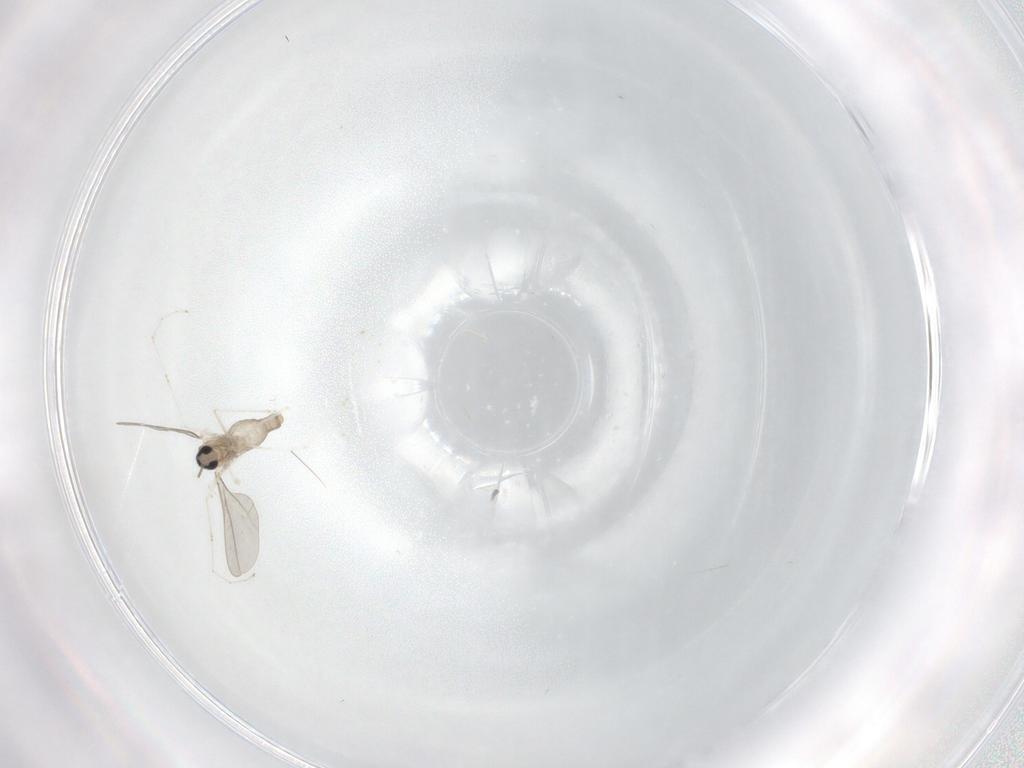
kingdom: Animalia
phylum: Arthropoda
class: Insecta
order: Diptera
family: Cecidomyiidae
